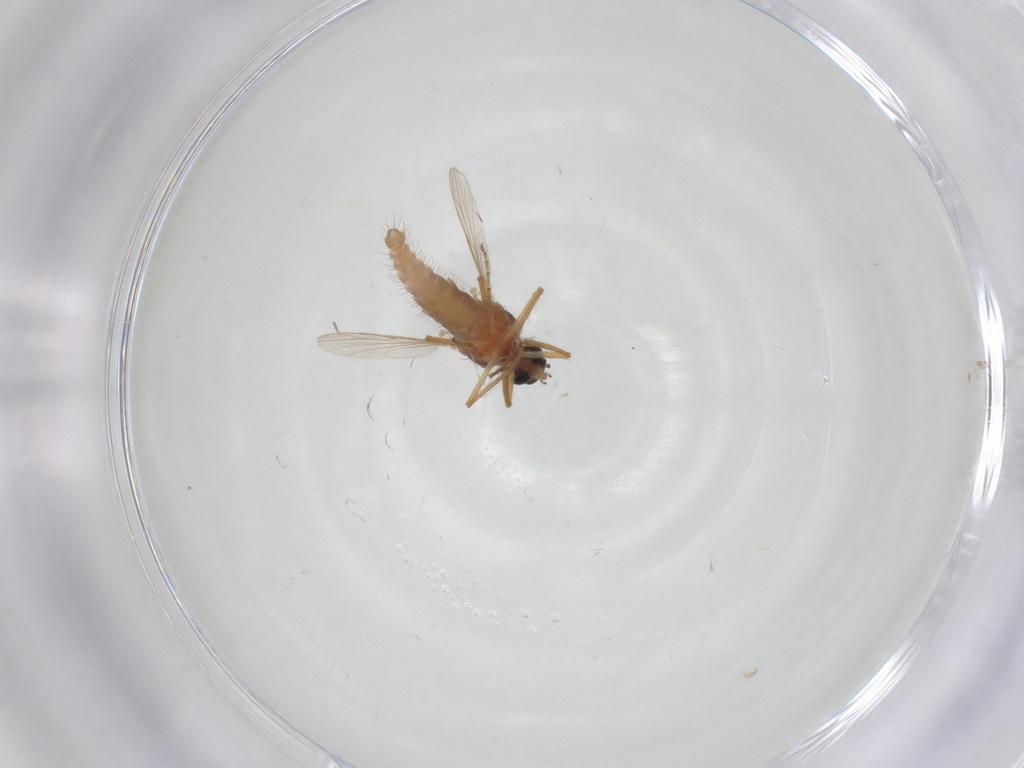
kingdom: Animalia
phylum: Arthropoda
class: Insecta
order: Diptera
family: Ceratopogonidae
